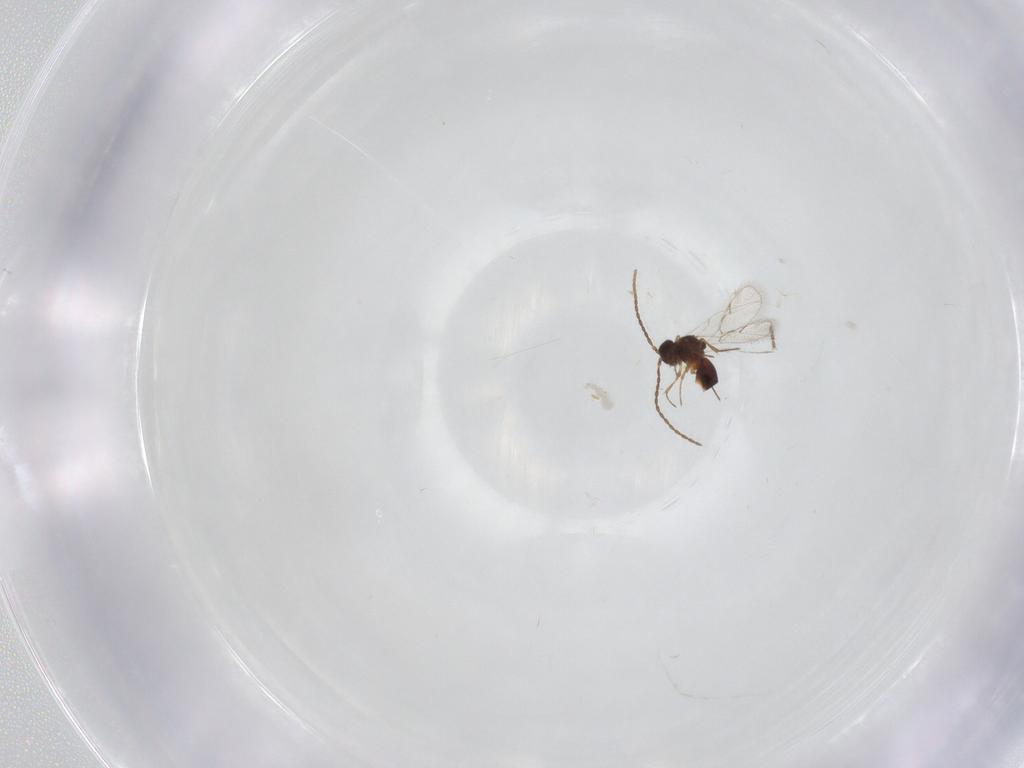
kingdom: Animalia
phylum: Arthropoda
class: Insecta
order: Hymenoptera
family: Figitidae
